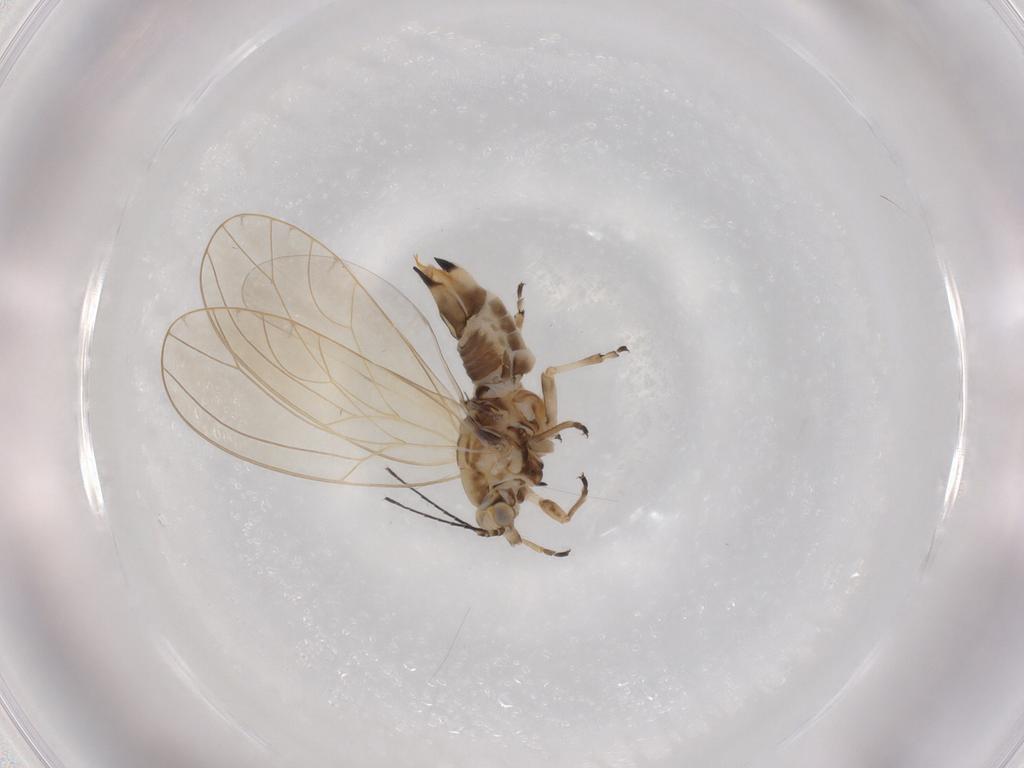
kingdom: Animalia
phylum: Arthropoda
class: Insecta
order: Hemiptera
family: Triozidae
